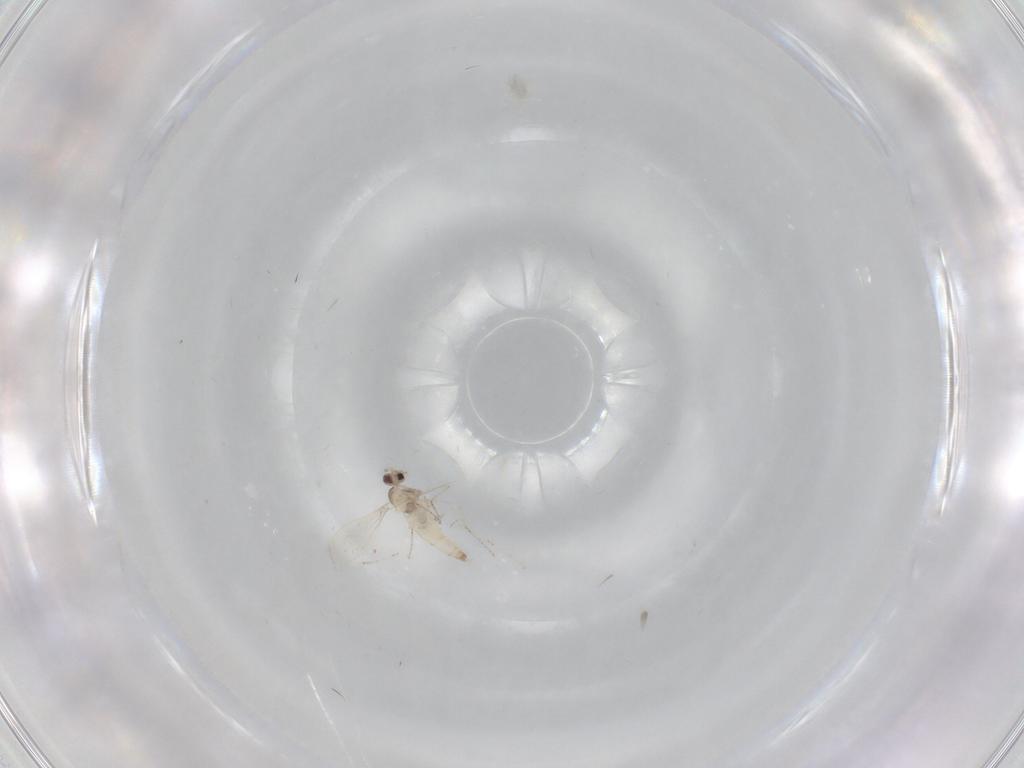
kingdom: Animalia
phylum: Arthropoda
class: Insecta
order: Diptera
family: Cecidomyiidae
